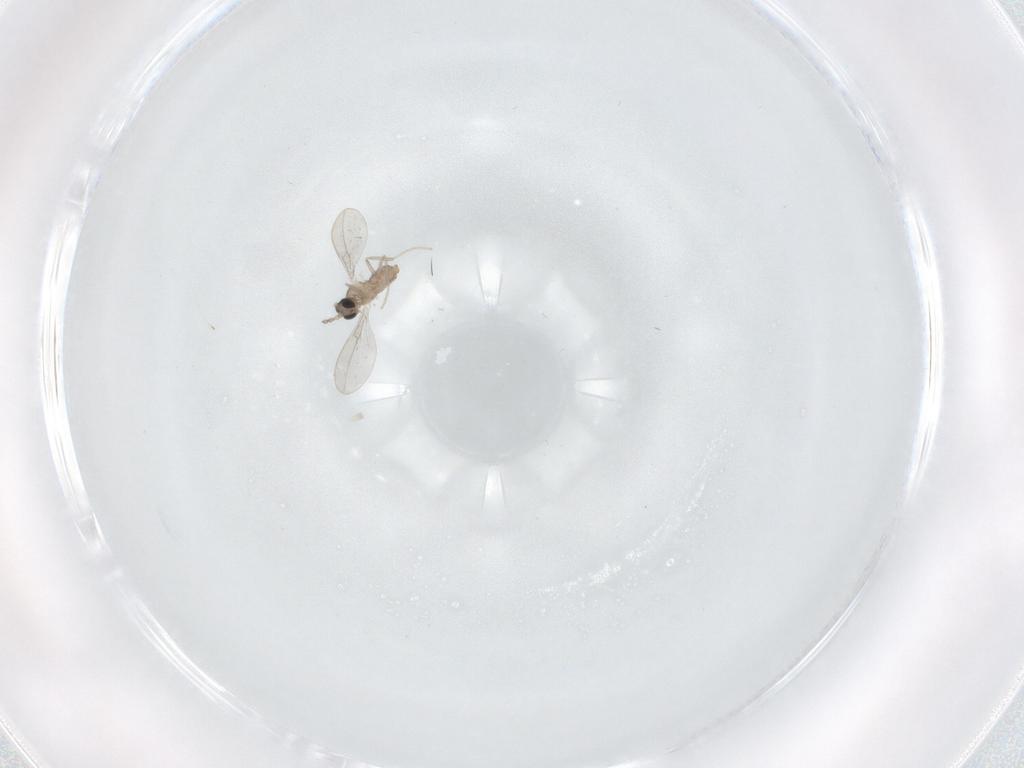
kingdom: Animalia
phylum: Arthropoda
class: Insecta
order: Diptera
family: Cecidomyiidae
